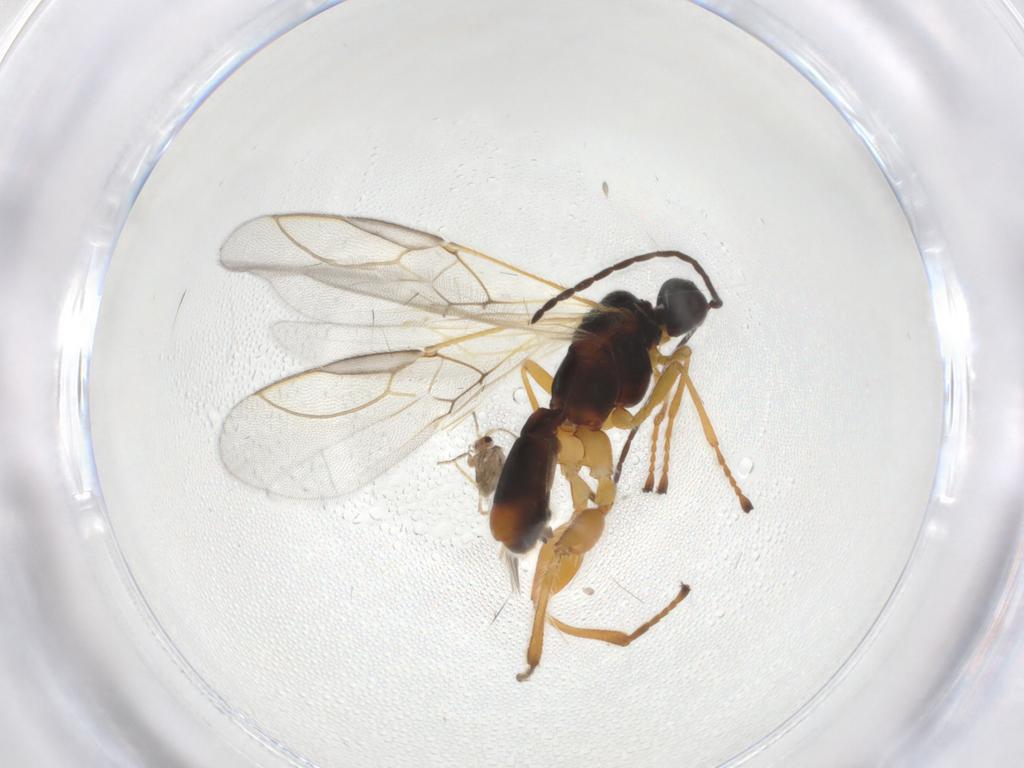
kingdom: Animalia
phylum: Arthropoda
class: Insecta
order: Hymenoptera
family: Braconidae
